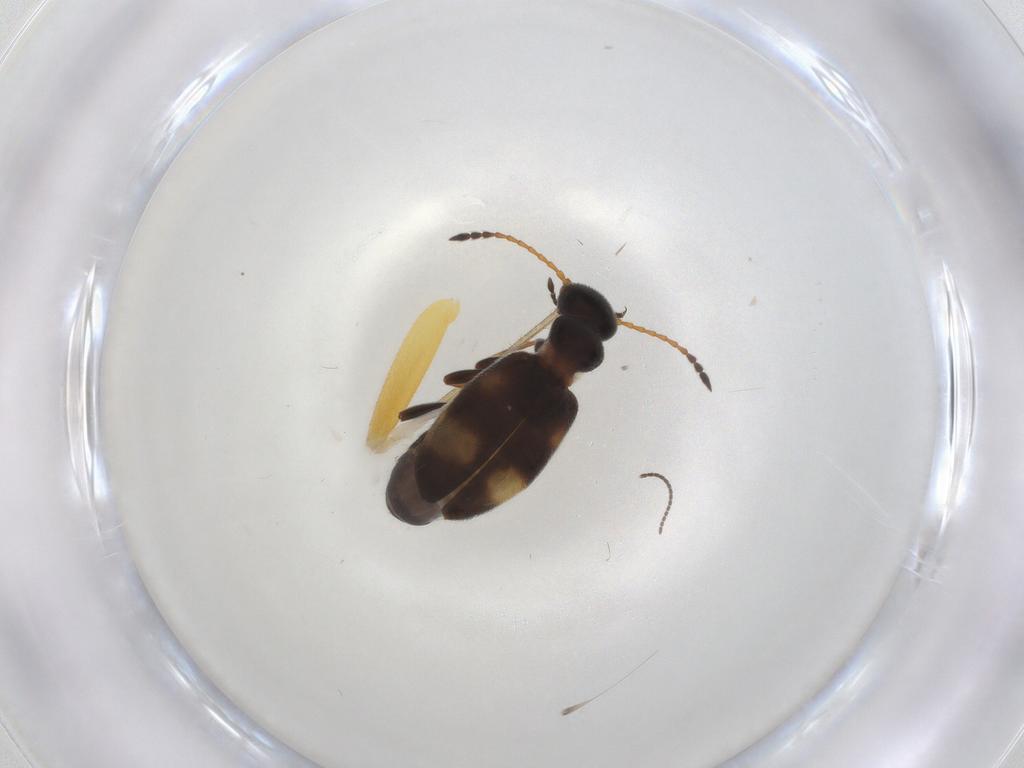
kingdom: Animalia
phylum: Arthropoda
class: Insecta
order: Coleoptera
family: Anthicidae
